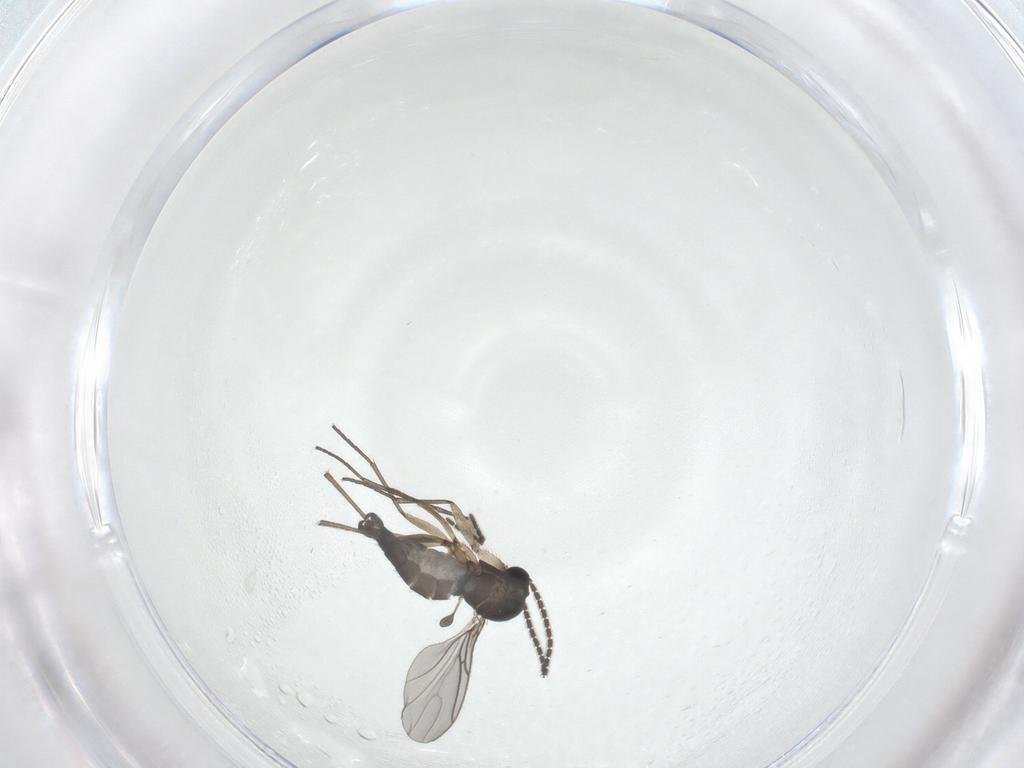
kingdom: Animalia
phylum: Arthropoda
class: Insecta
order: Diptera
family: Sciaridae
